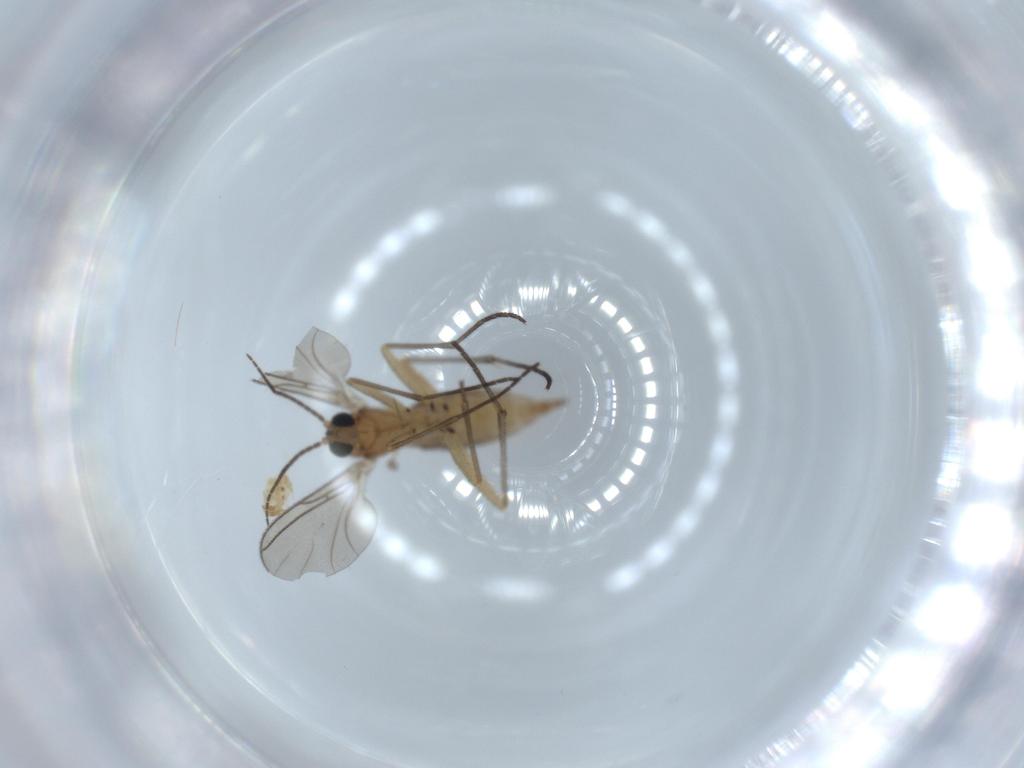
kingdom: Animalia
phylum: Arthropoda
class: Insecta
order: Diptera
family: Sciaridae
